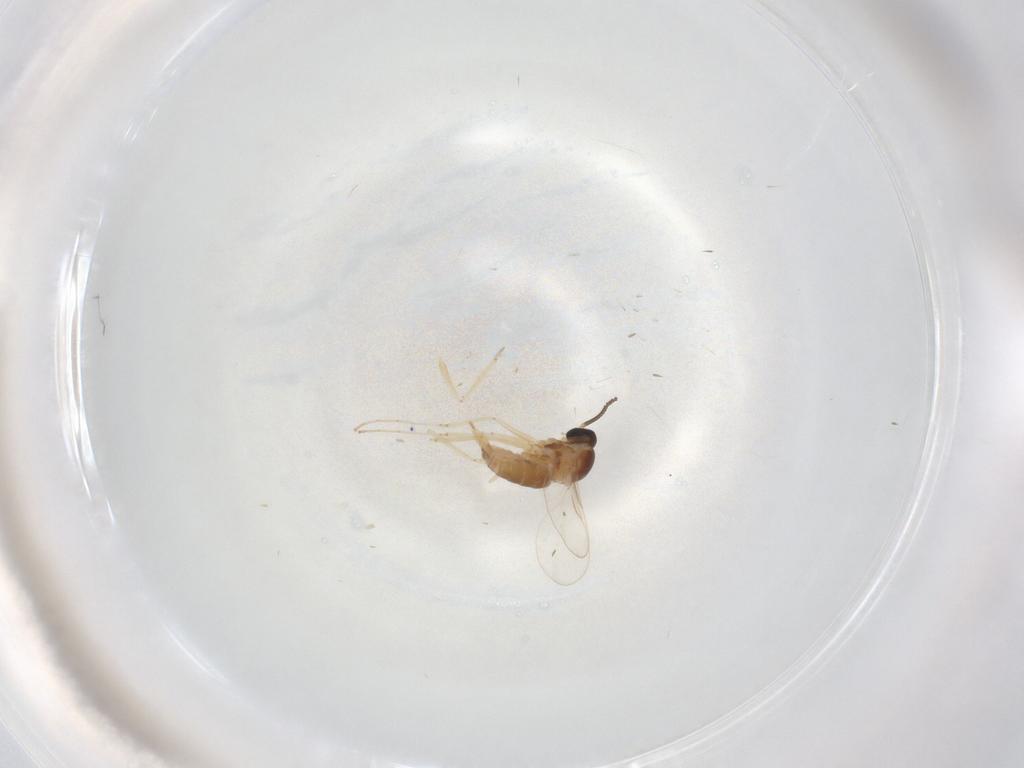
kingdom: Animalia
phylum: Arthropoda
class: Insecta
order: Diptera
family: Cecidomyiidae
